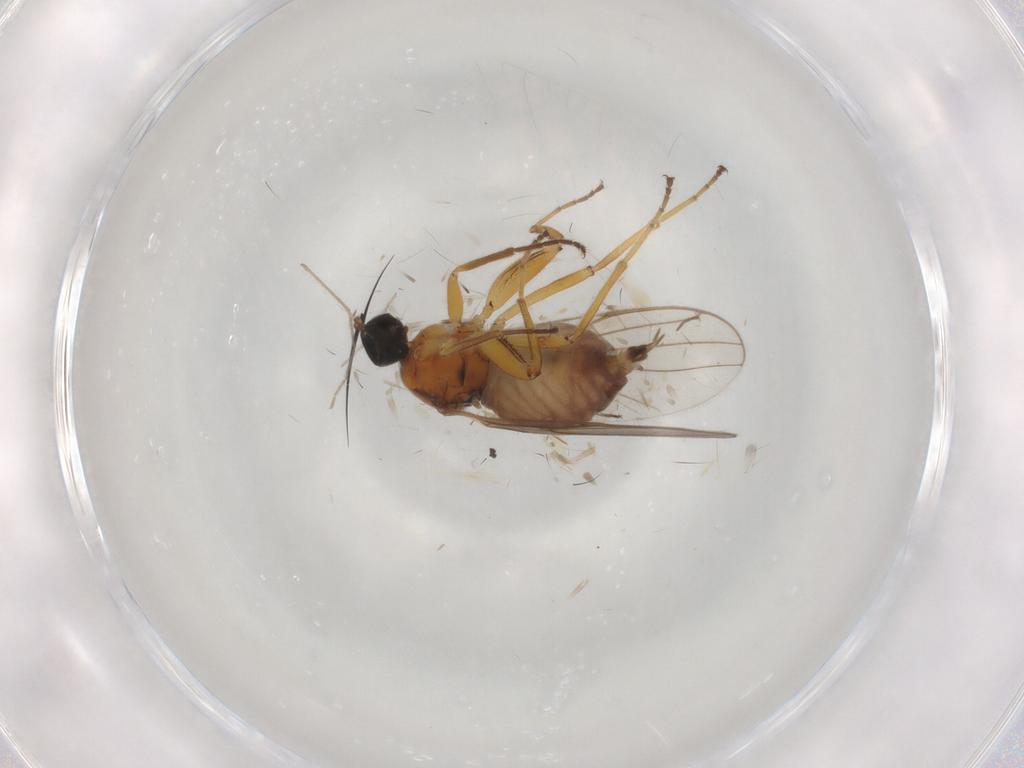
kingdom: Animalia
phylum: Arthropoda
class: Insecta
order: Diptera
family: Hybotidae
